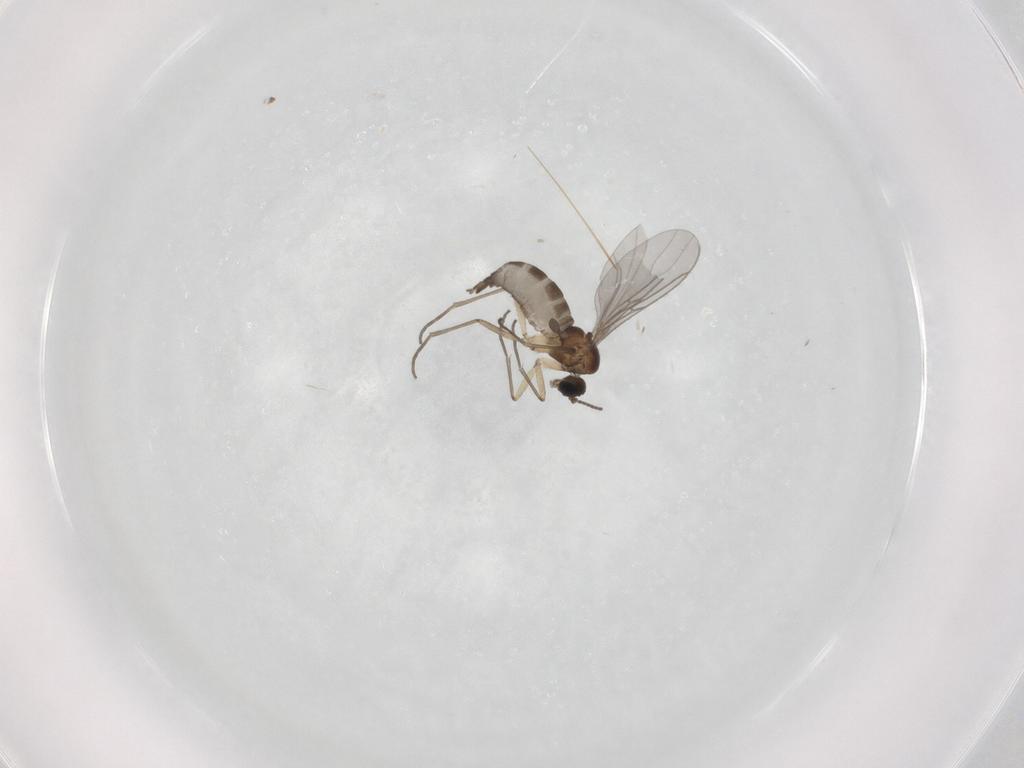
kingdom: Animalia
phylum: Arthropoda
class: Insecta
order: Diptera
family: Sciaridae
